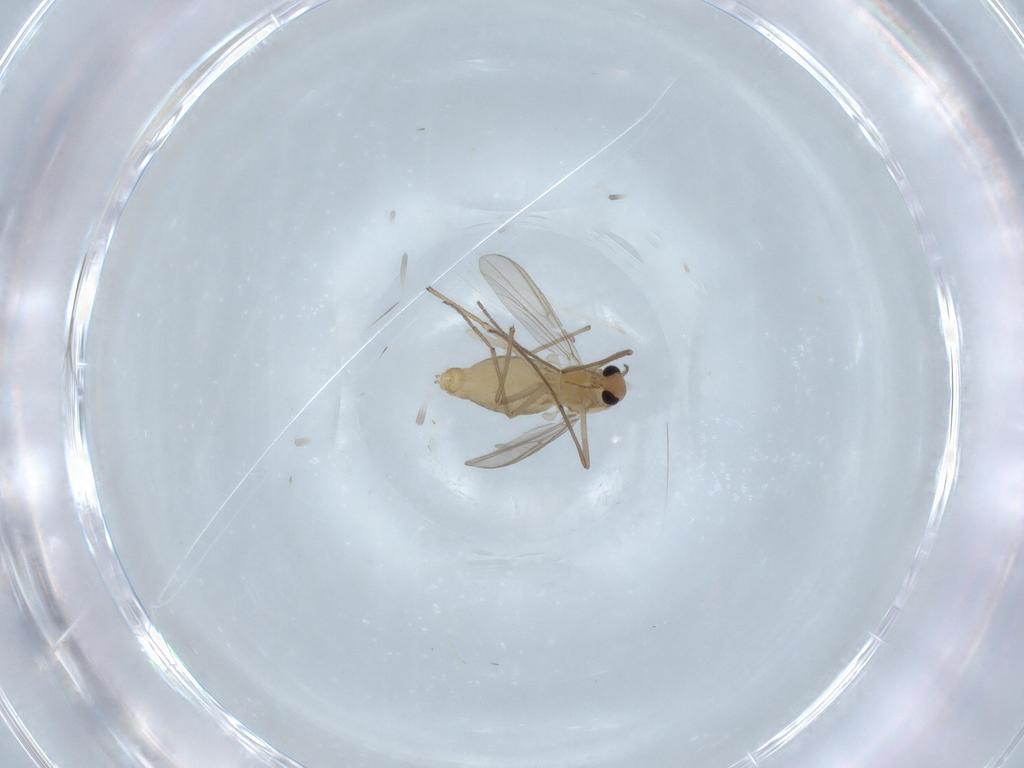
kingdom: Animalia
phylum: Arthropoda
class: Insecta
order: Diptera
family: Chironomidae
